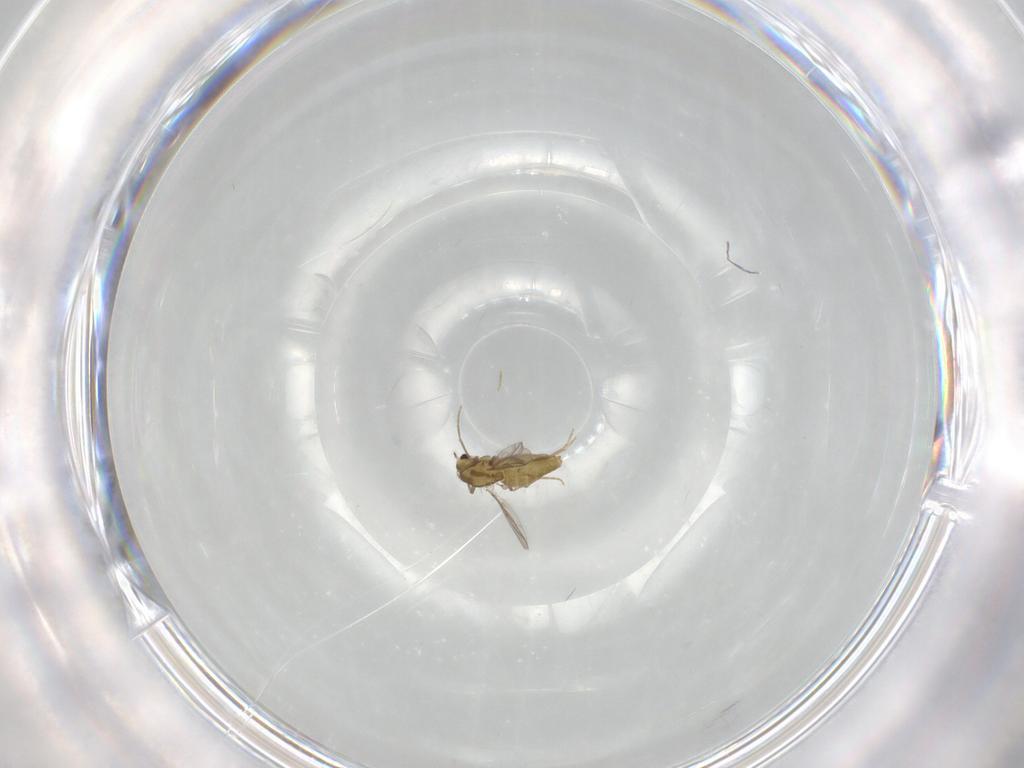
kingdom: Animalia
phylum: Arthropoda
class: Insecta
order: Diptera
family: Chironomidae
